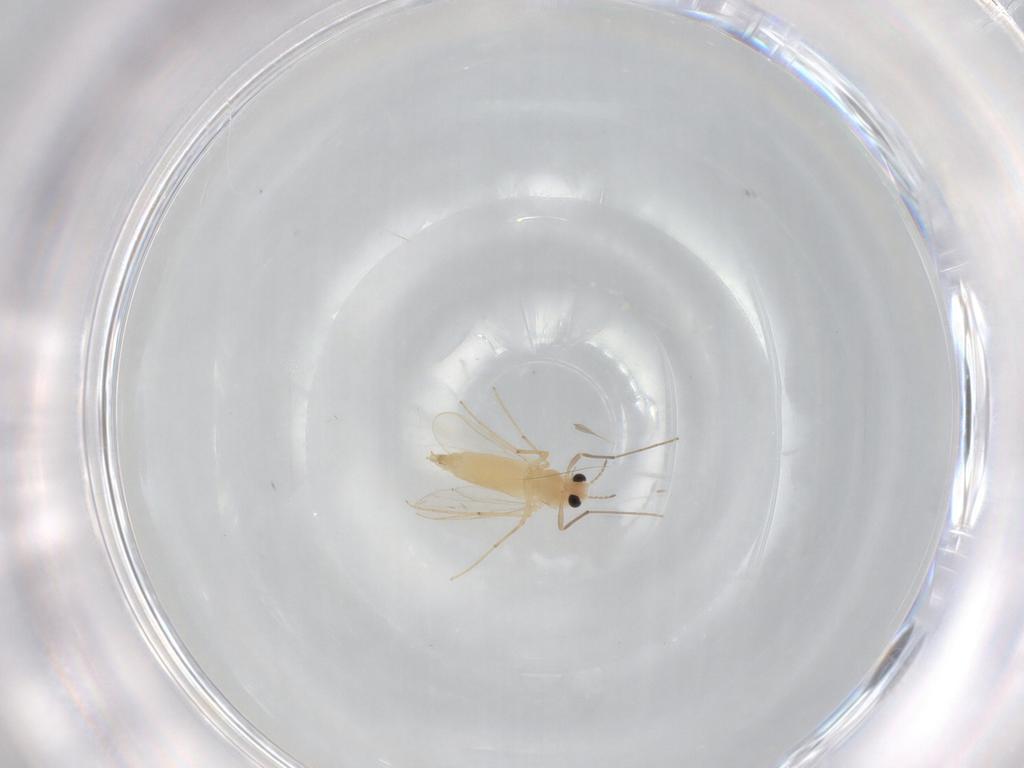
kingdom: Animalia
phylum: Arthropoda
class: Insecta
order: Diptera
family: Chironomidae
